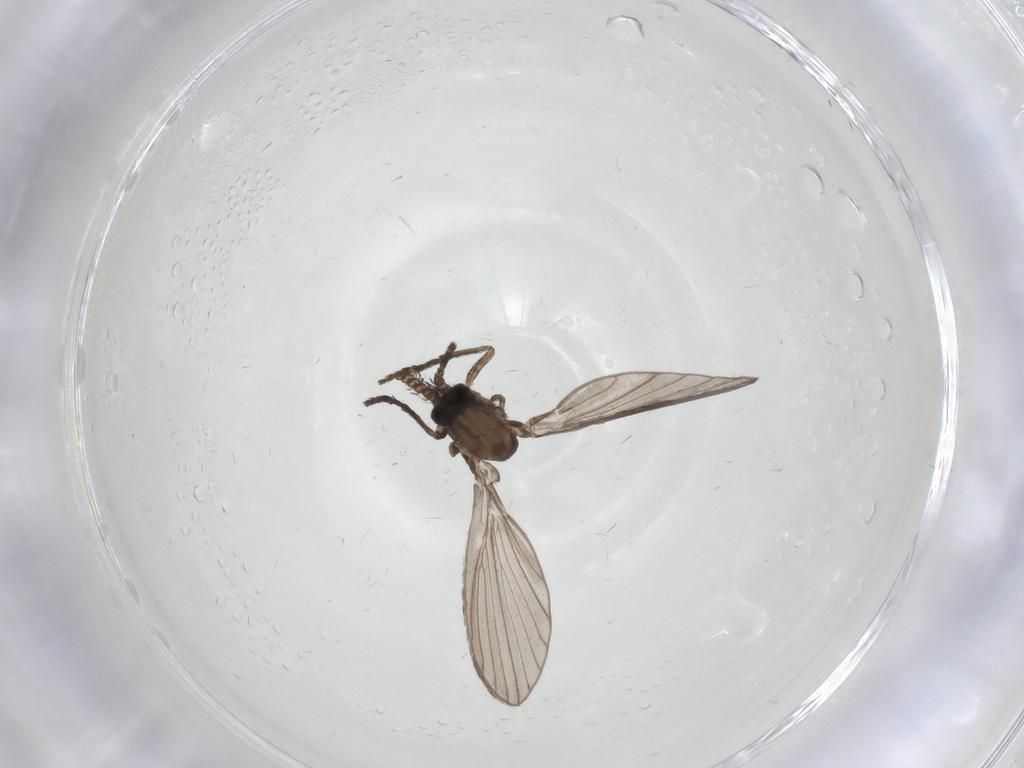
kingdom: Animalia
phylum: Arthropoda
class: Insecta
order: Diptera
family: Psychodidae
